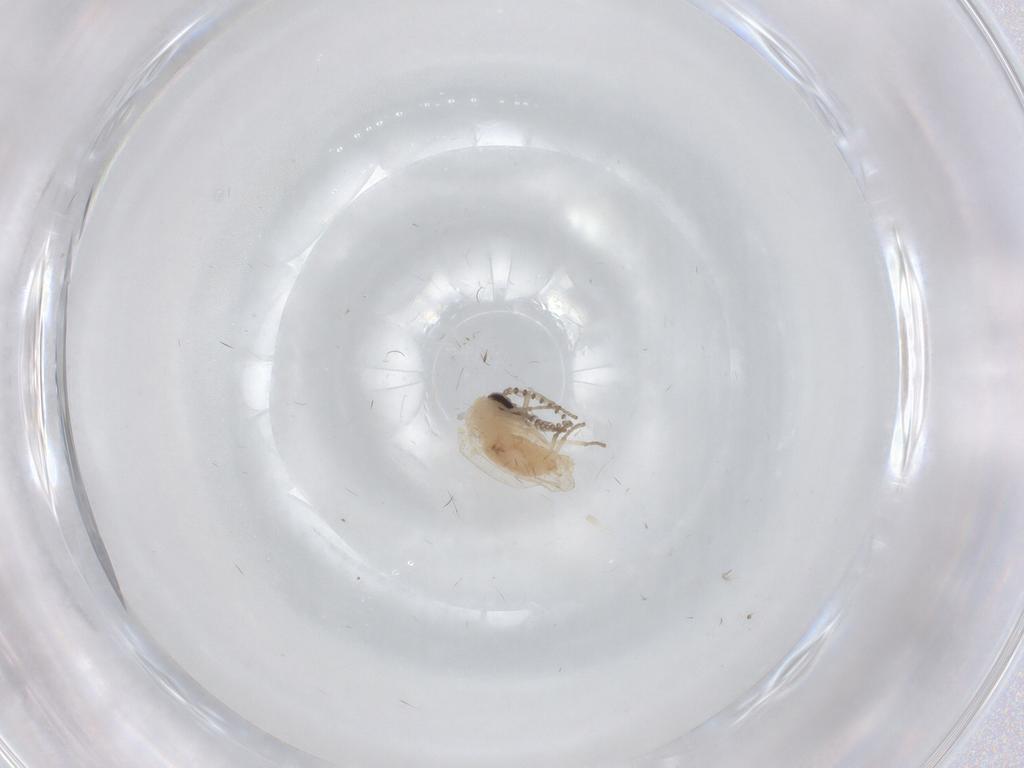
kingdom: Animalia
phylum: Arthropoda
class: Insecta
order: Diptera
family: Psychodidae
